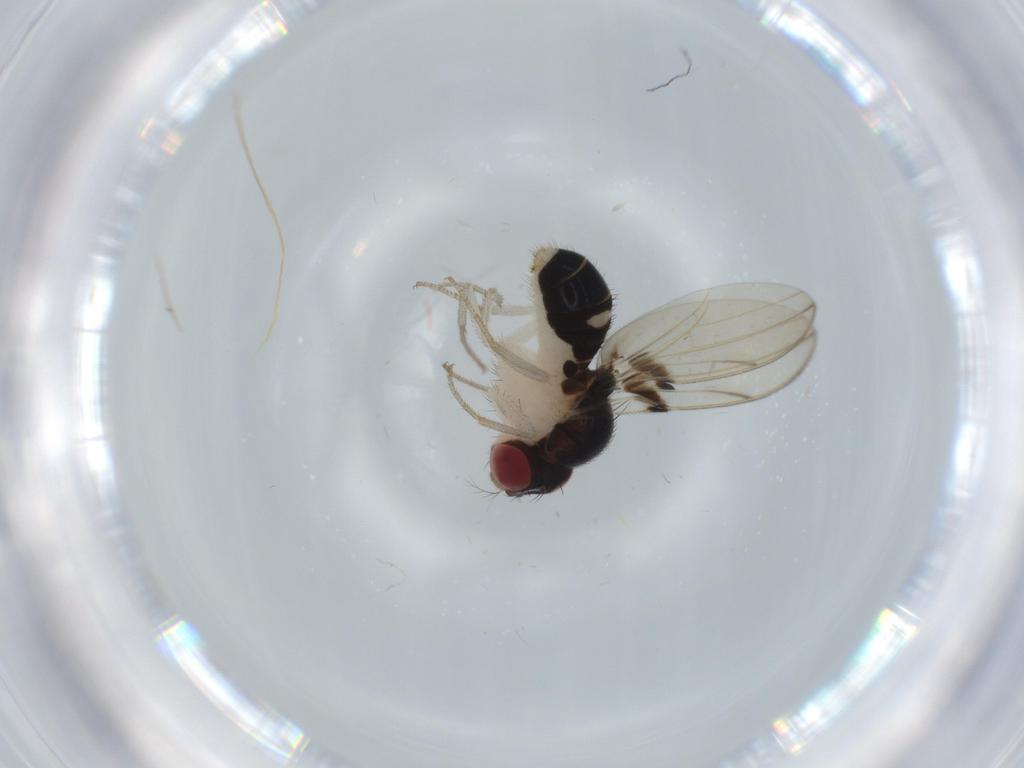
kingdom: Animalia
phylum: Arthropoda
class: Insecta
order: Diptera
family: Drosophilidae
